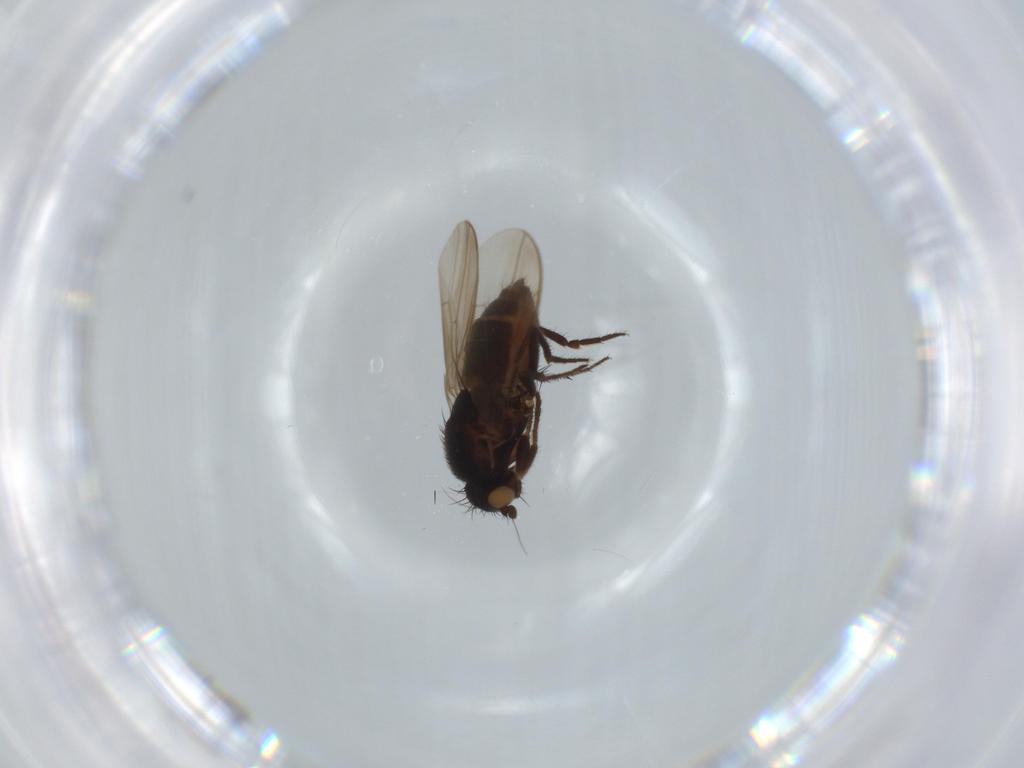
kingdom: Animalia
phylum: Arthropoda
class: Insecta
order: Diptera
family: Sphaeroceridae
